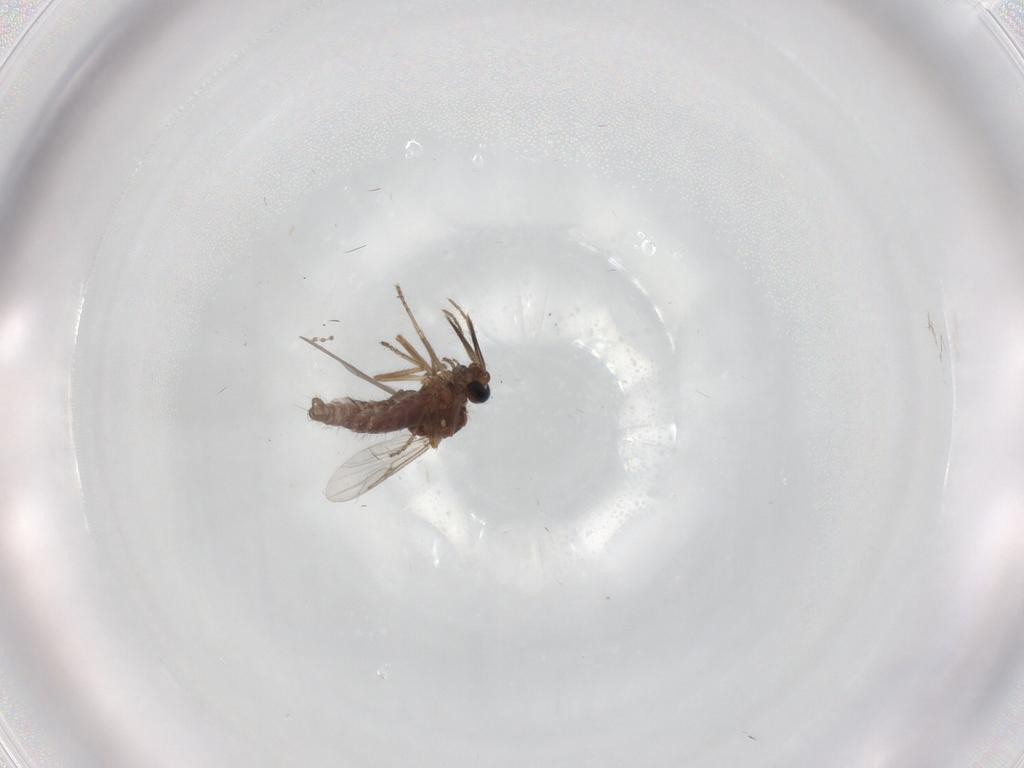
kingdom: Animalia
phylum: Arthropoda
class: Insecta
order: Diptera
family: Ceratopogonidae
